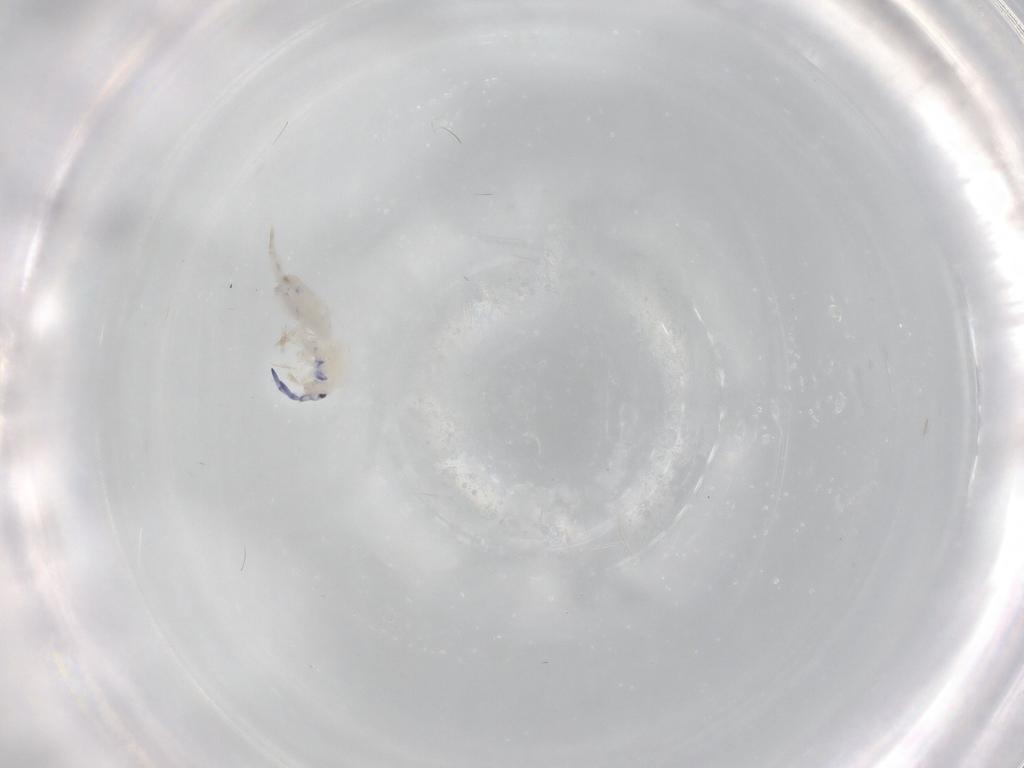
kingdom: Animalia
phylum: Arthropoda
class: Collembola
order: Entomobryomorpha
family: Entomobryidae
